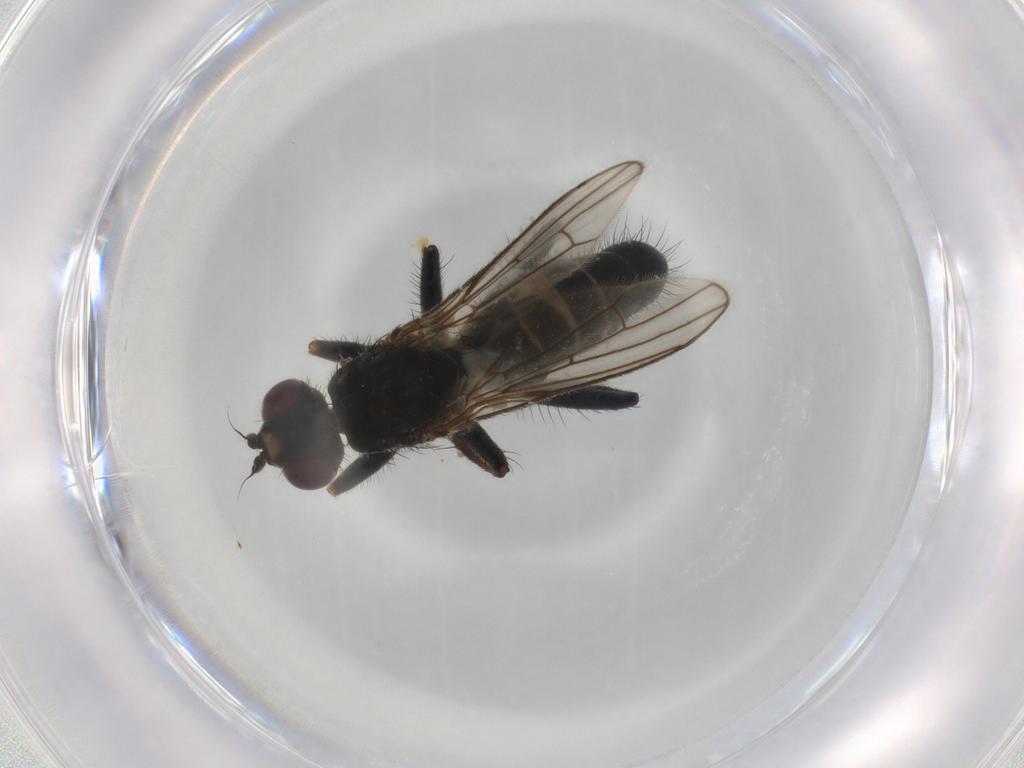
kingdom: Animalia
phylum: Arthropoda
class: Insecta
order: Diptera
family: Scathophagidae
